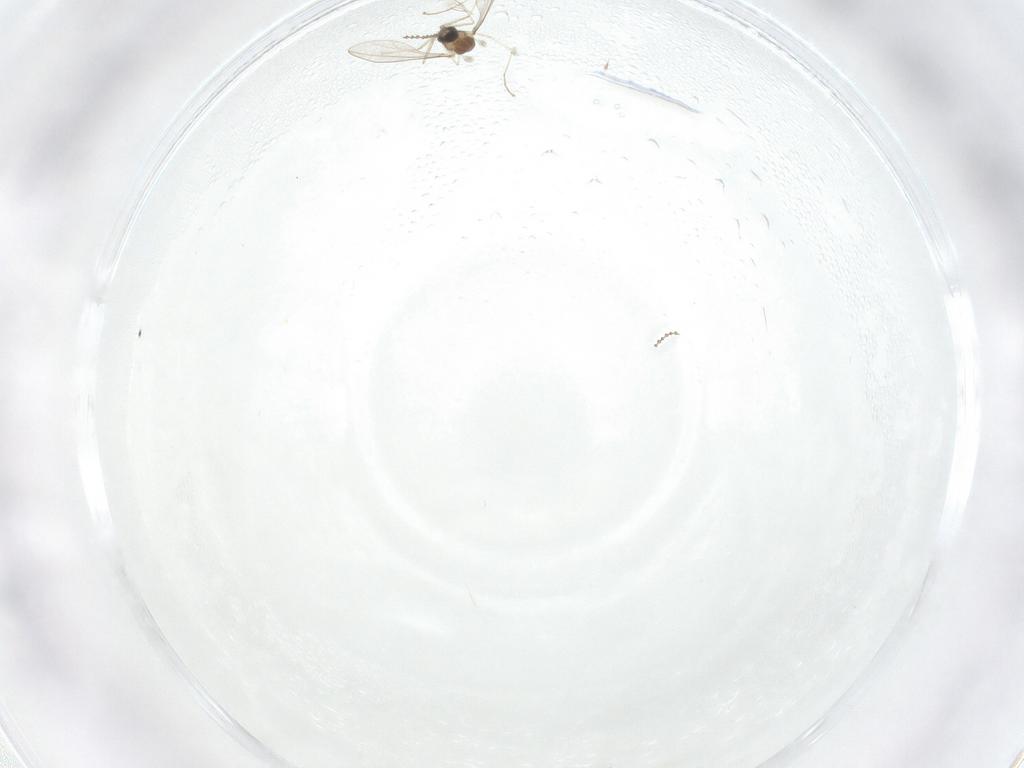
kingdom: Animalia
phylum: Arthropoda
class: Insecta
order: Diptera
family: Cecidomyiidae
